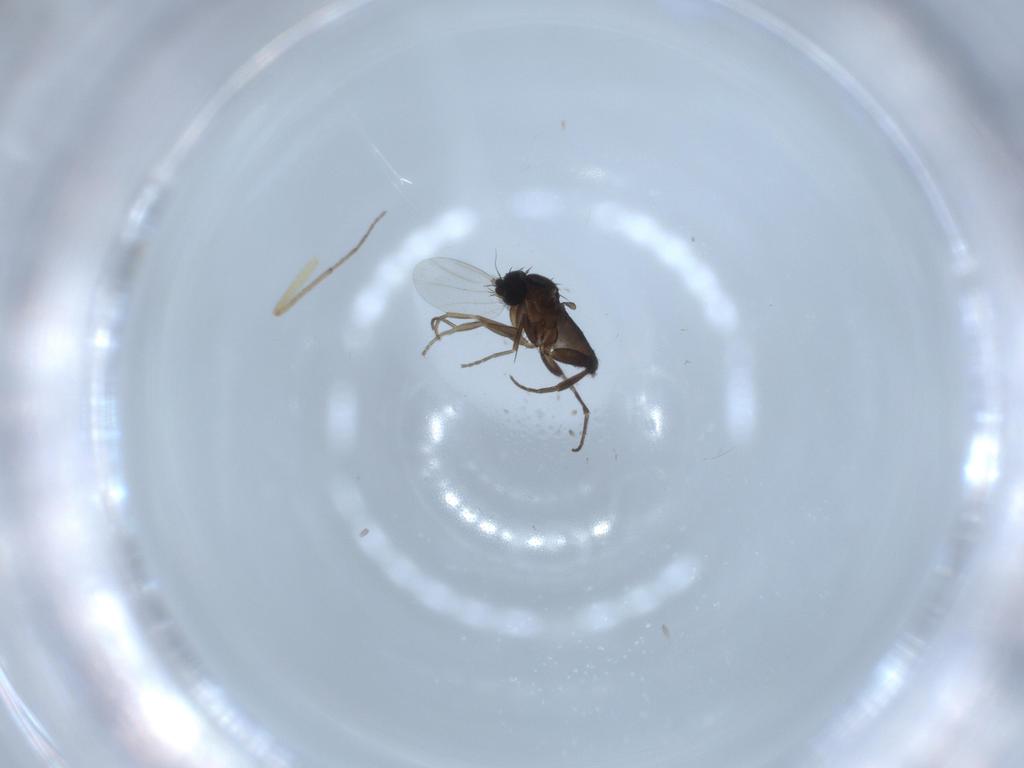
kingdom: Animalia
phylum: Arthropoda
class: Insecta
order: Diptera
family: Chironomidae
